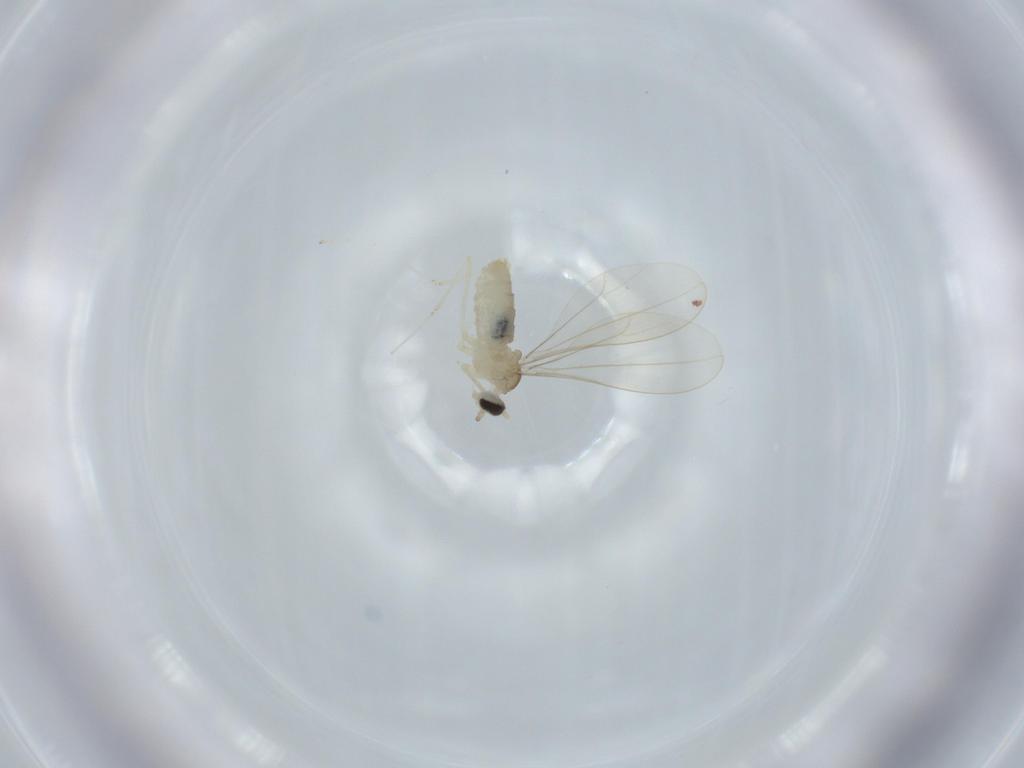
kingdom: Animalia
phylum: Arthropoda
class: Insecta
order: Diptera
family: Cecidomyiidae
